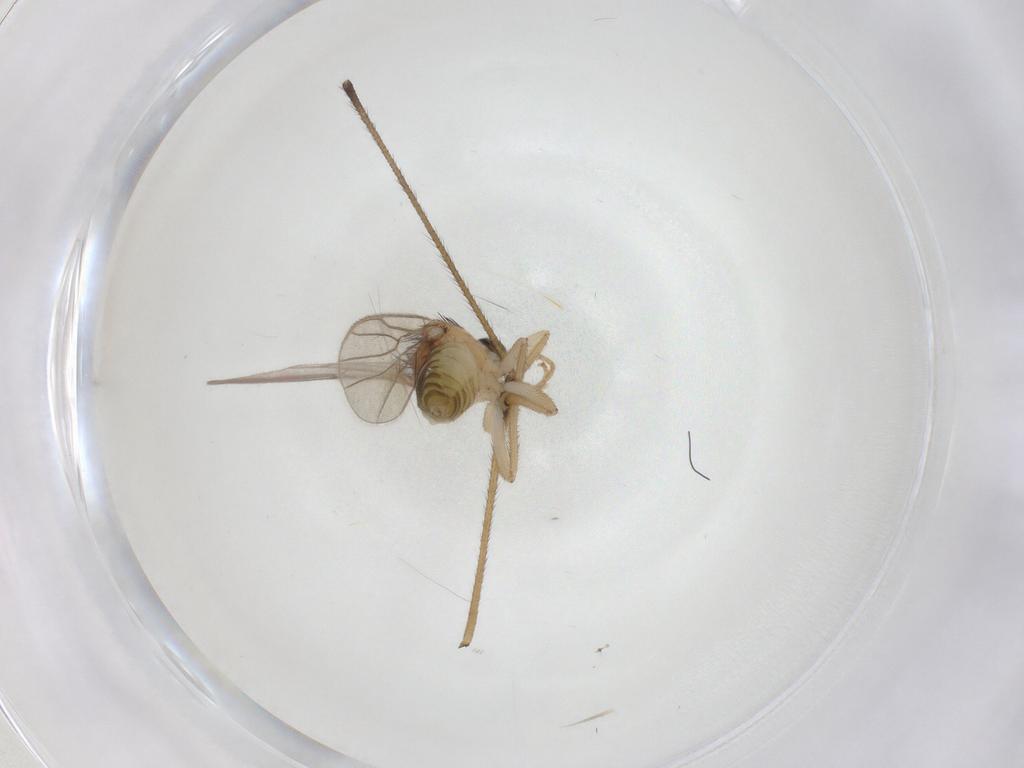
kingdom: Animalia
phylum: Arthropoda
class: Insecta
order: Diptera
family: Hybotidae
